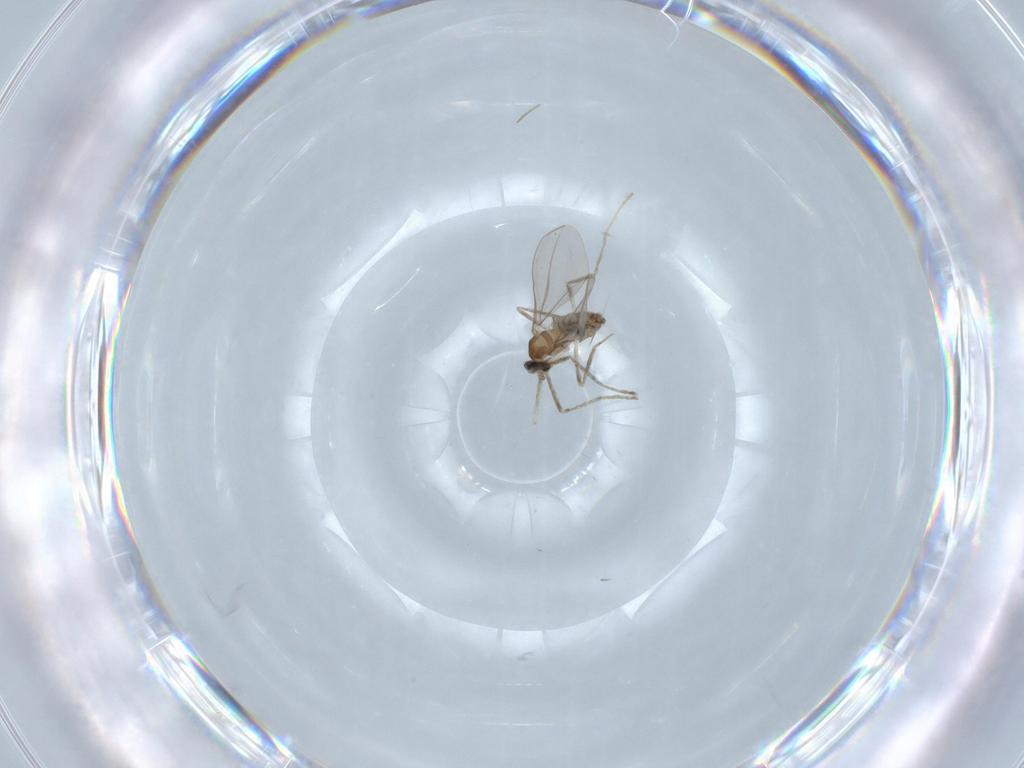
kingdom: Animalia
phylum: Arthropoda
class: Insecta
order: Diptera
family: Cecidomyiidae
